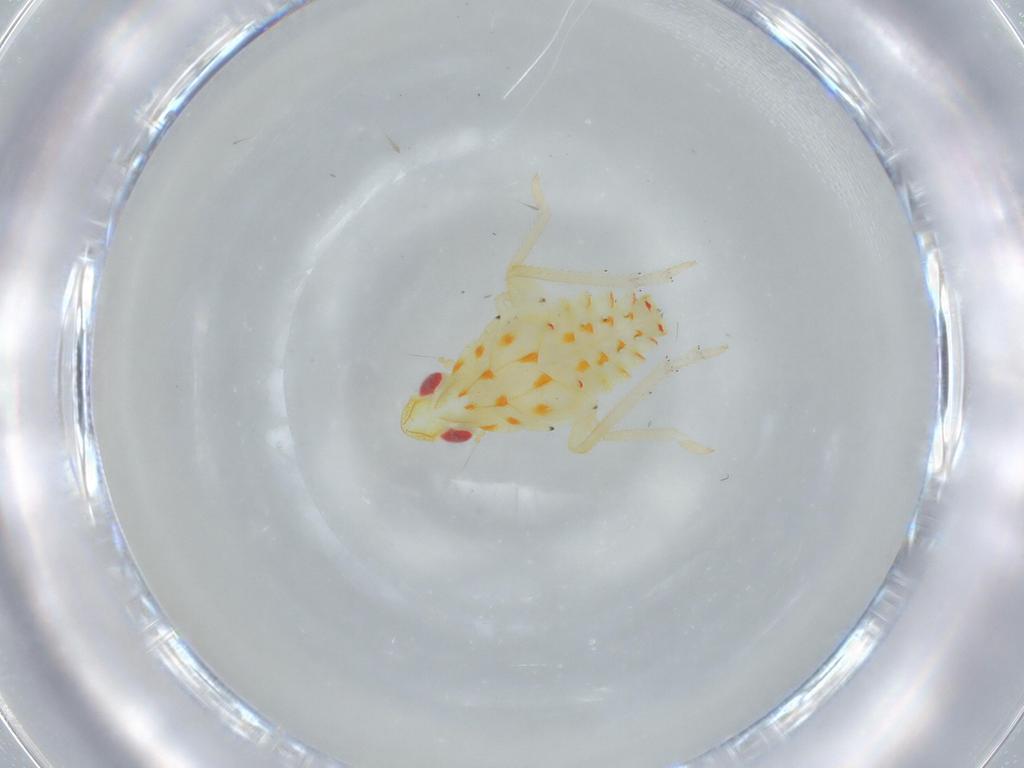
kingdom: Animalia
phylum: Arthropoda
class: Insecta
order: Hemiptera
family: Tropiduchidae
